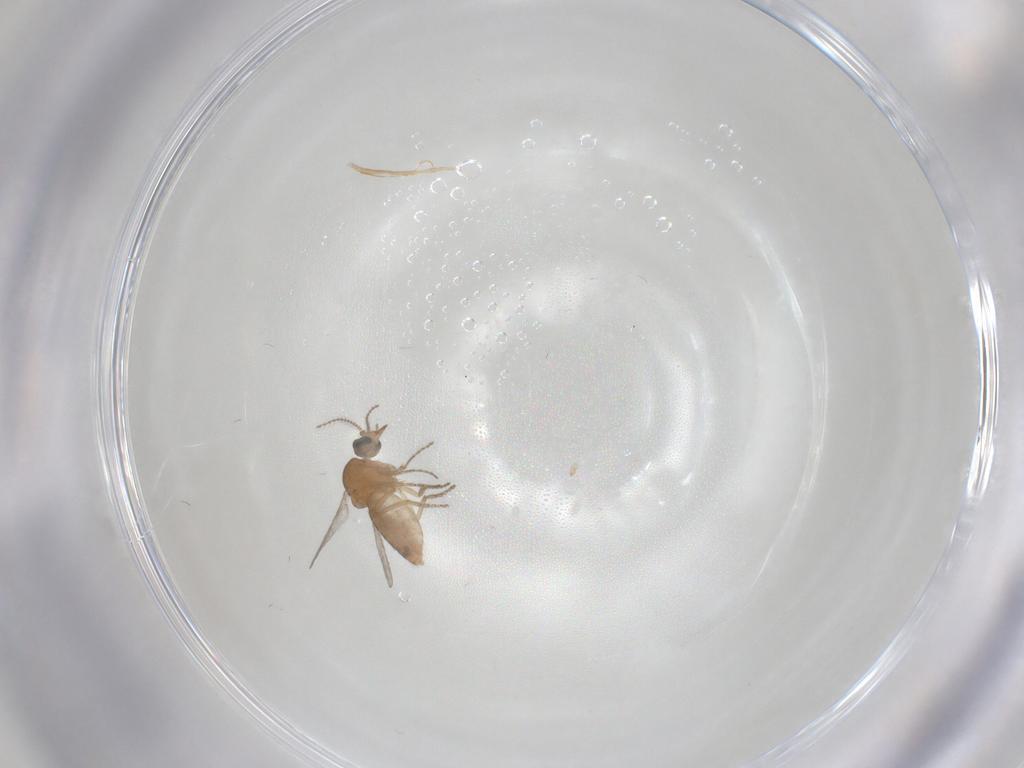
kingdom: Animalia
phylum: Arthropoda
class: Insecta
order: Diptera
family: Ceratopogonidae
